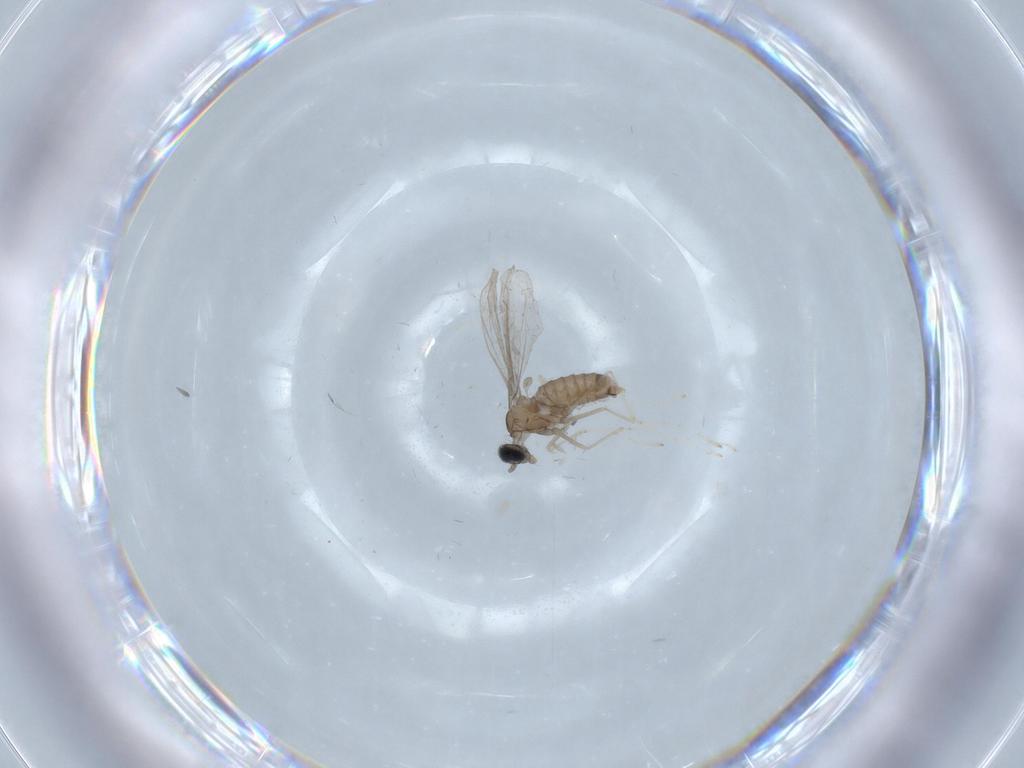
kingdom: Animalia
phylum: Arthropoda
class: Insecta
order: Diptera
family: Cecidomyiidae
